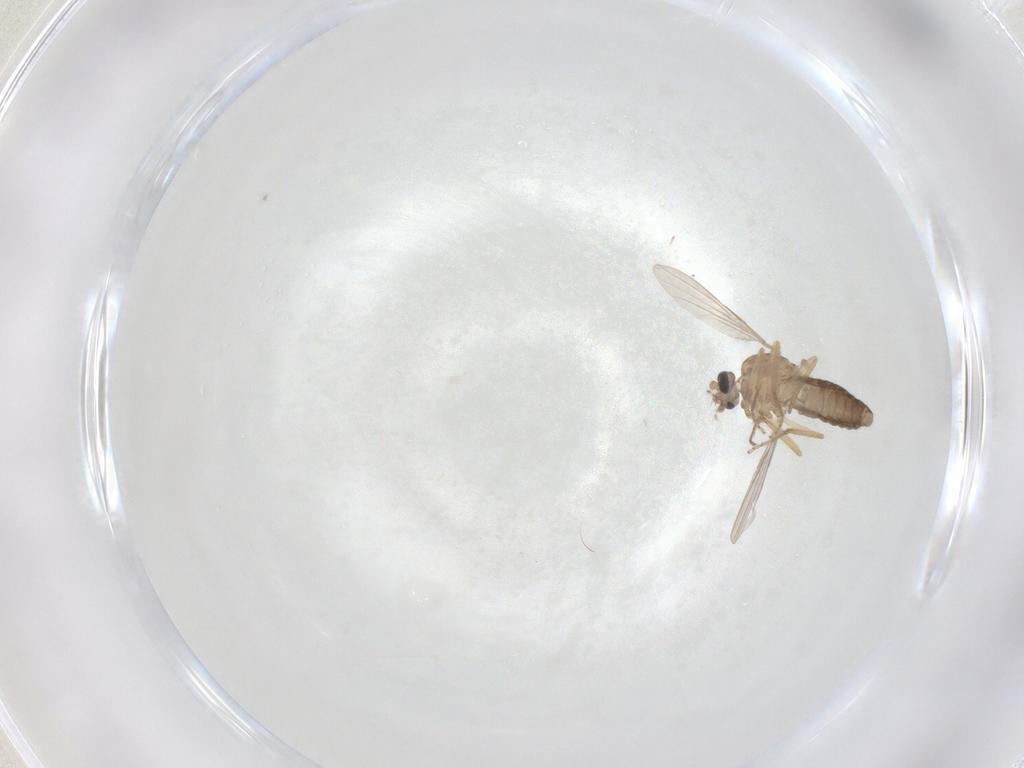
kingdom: Animalia
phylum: Arthropoda
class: Insecta
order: Diptera
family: Ceratopogonidae
